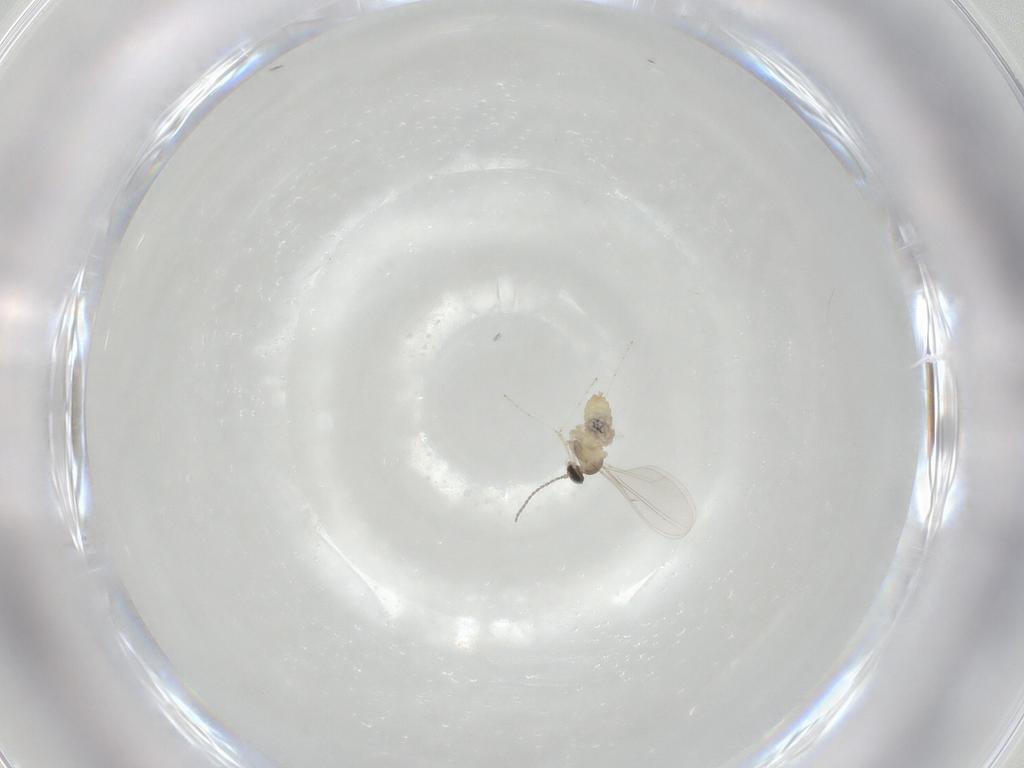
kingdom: Animalia
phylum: Arthropoda
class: Insecta
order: Diptera
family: Cecidomyiidae
